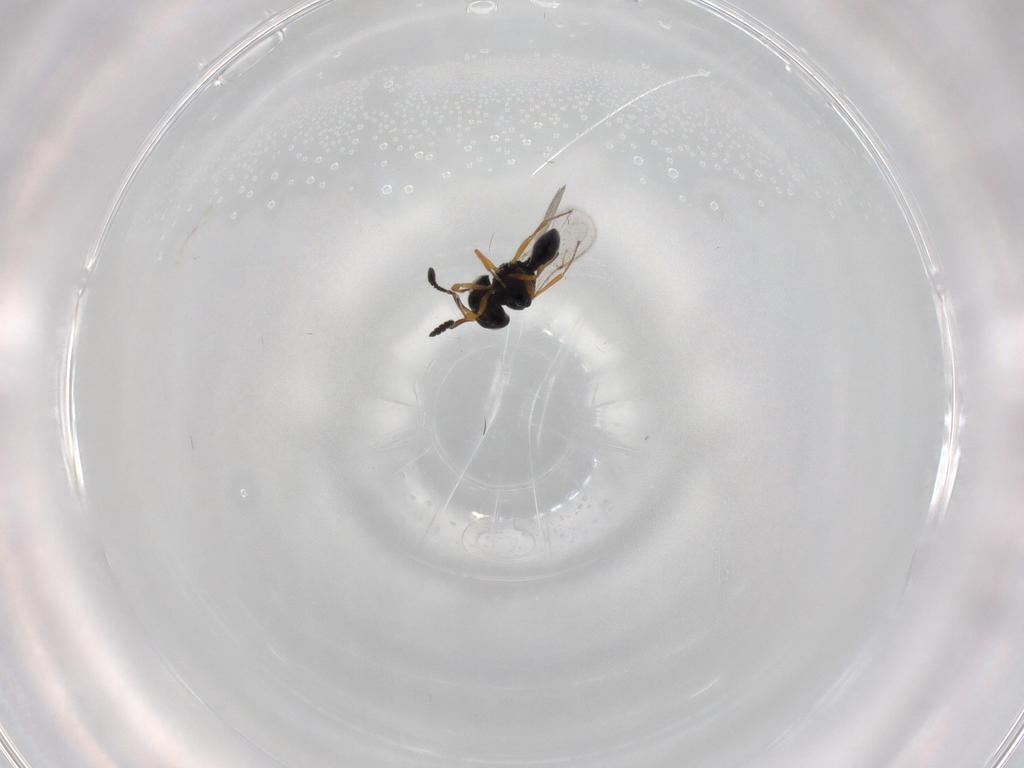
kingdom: Animalia
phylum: Arthropoda
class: Insecta
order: Hymenoptera
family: Scelionidae
